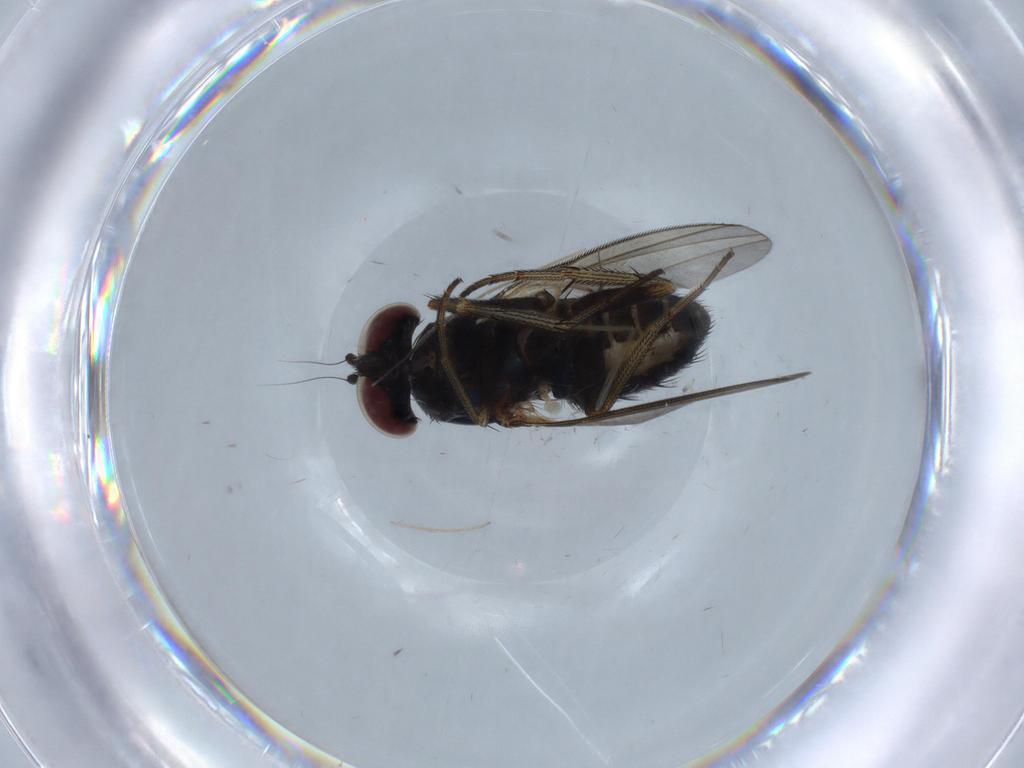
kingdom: Animalia
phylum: Arthropoda
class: Insecta
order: Diptera
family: Dolichopodidae
